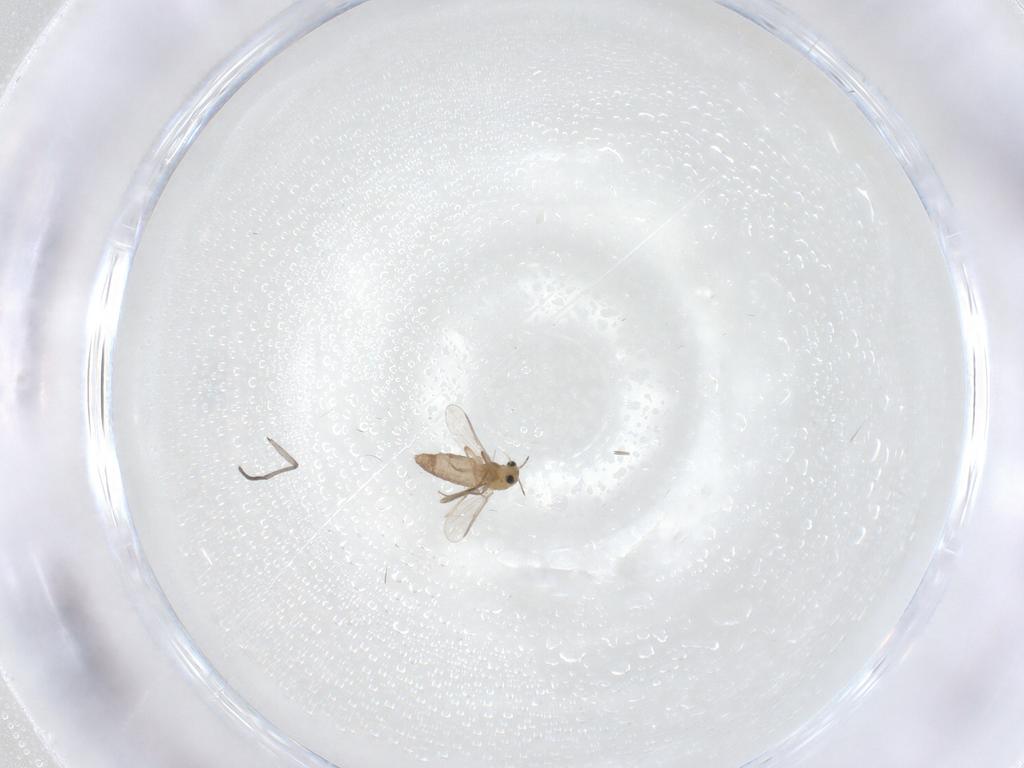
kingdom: Animalia
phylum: Arthropoda
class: Insecta
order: Diptera
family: Chironomidae
